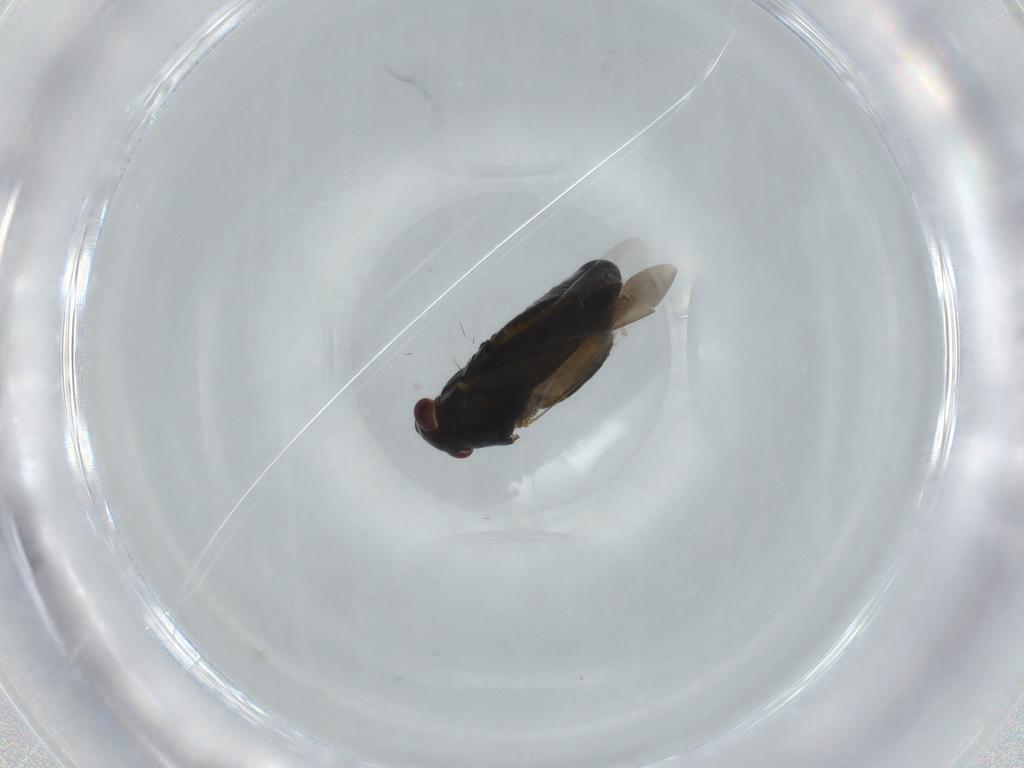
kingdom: Animalia
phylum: Arthropoda
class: Insecta
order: Hemiptera
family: Miridae
